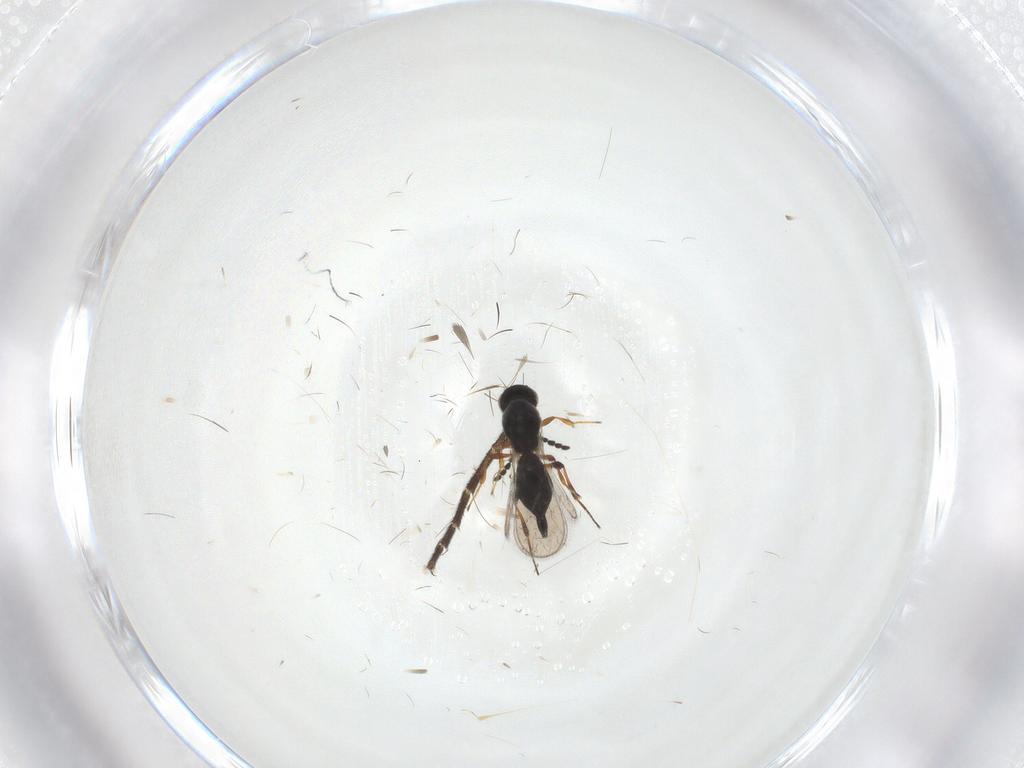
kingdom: Animalia
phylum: Arthropoda
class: Insecta
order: Hymenoptera
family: Platygastridae
